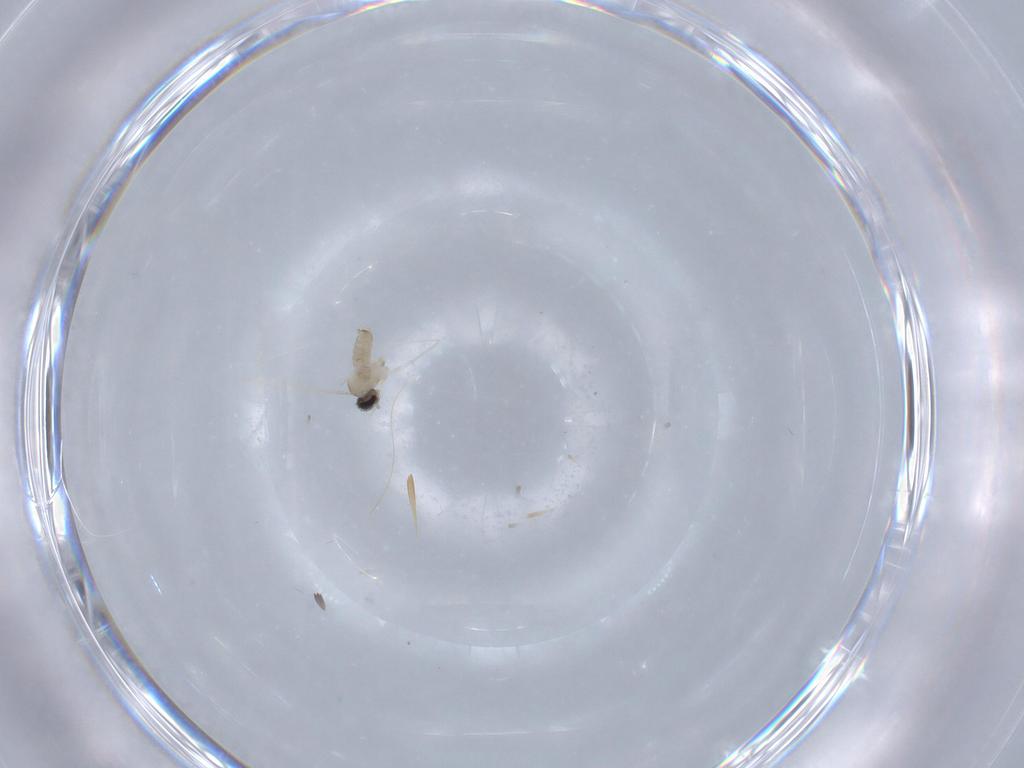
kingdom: Animalia
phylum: Arthropoda
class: Insecta
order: Diptera
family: Cecidomyiidae
